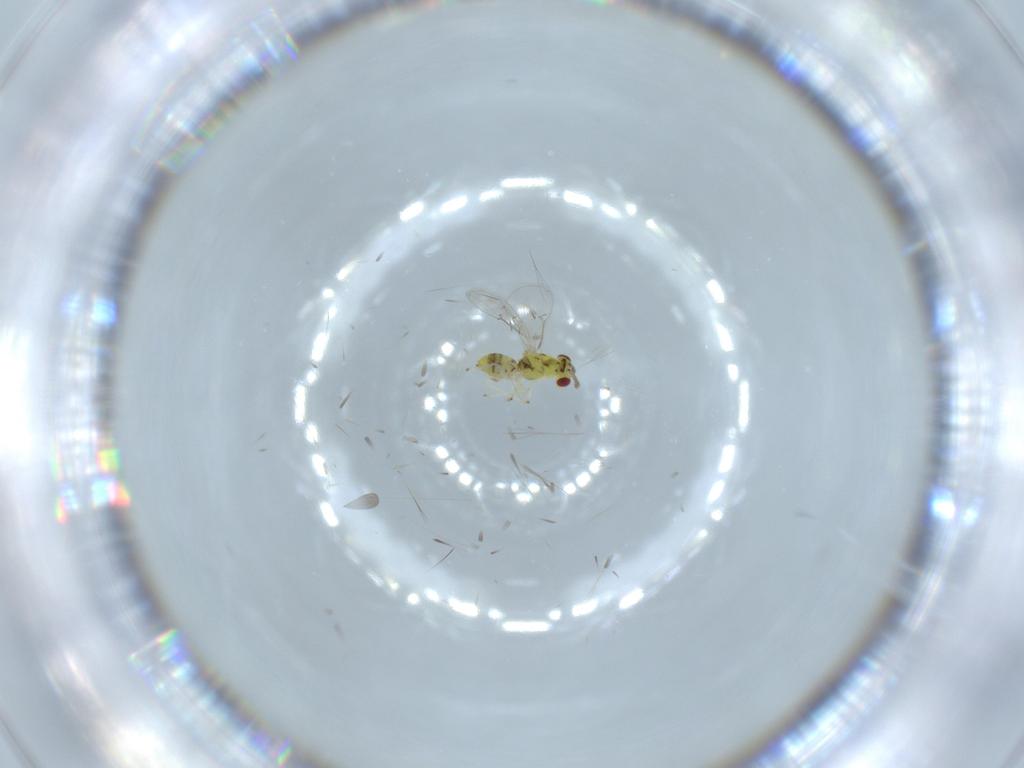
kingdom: Animalia
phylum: Arthropoda
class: Insecta
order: Hymenoptera
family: Eulophidae
